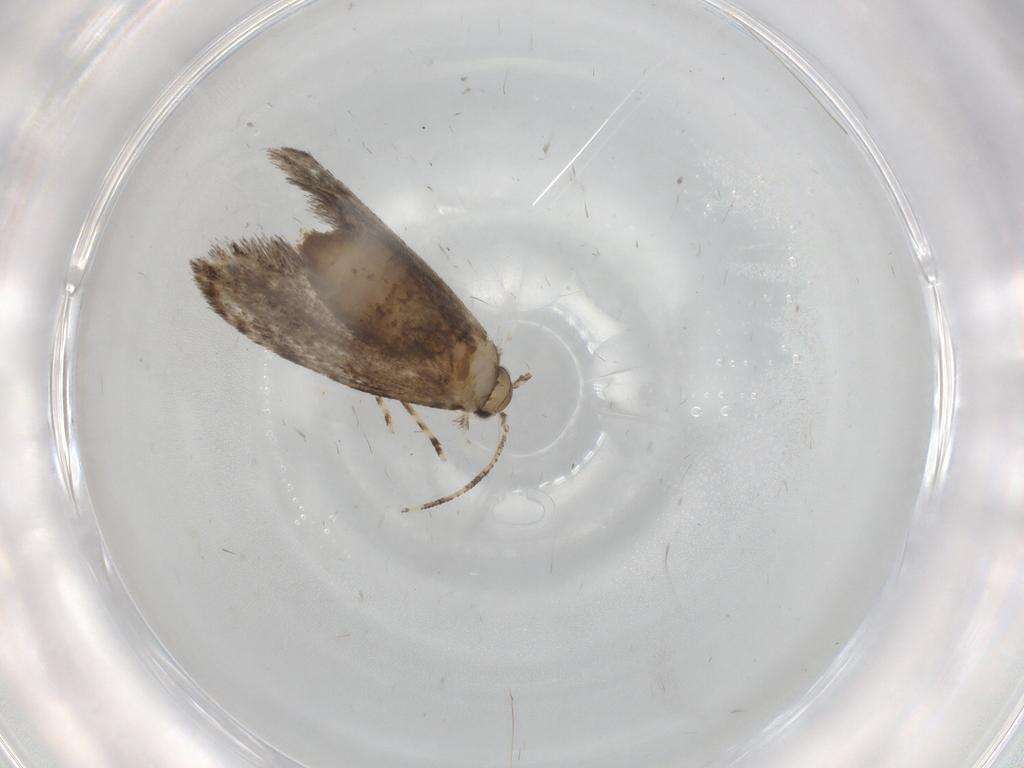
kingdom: Animalia
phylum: Arthropoda
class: Insecta
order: Lepidoptera
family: Tineidae
